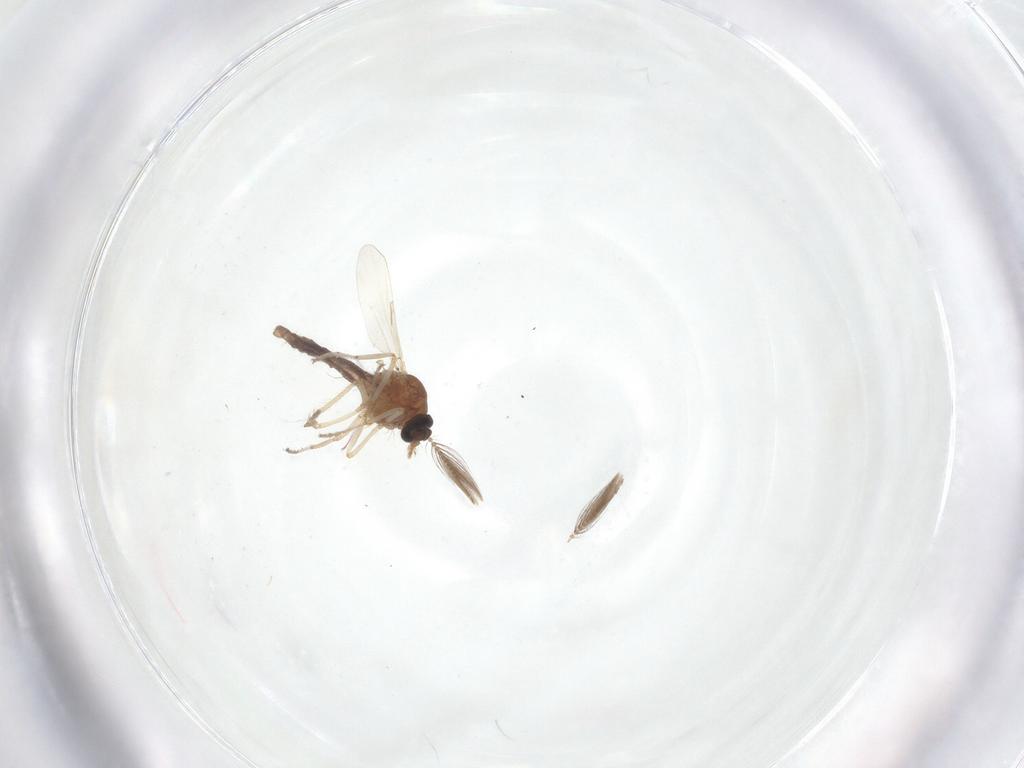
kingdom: Animalia
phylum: Arthropoda
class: Insecta
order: Diptera
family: Ceratopogonidae
